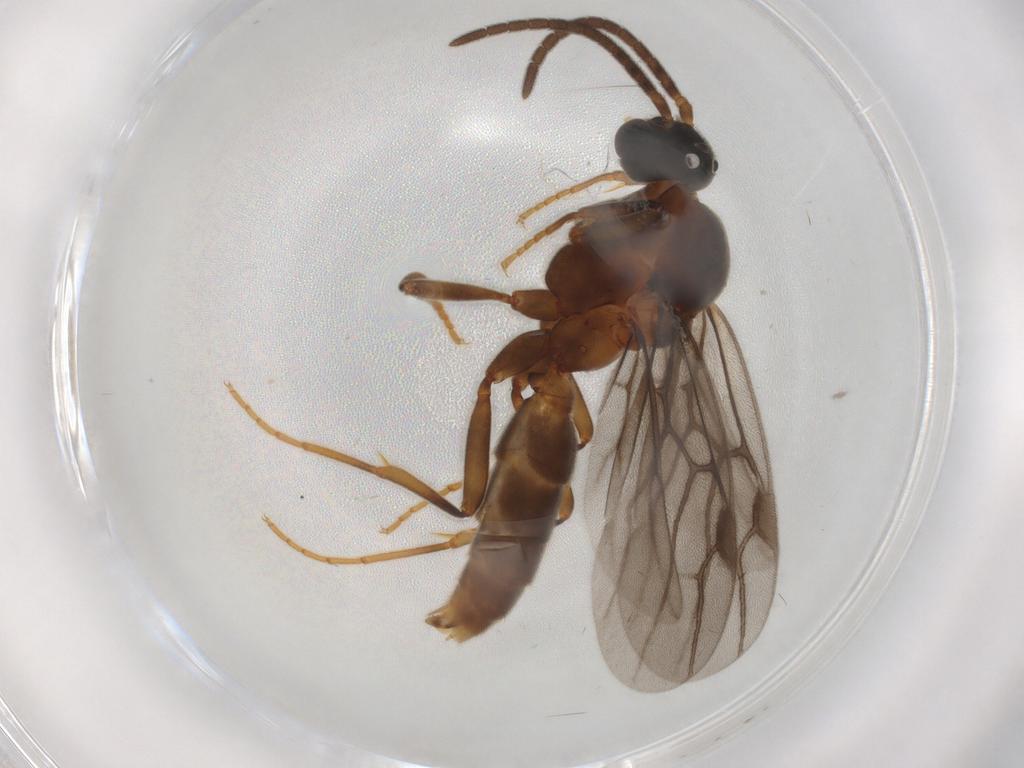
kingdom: Animalia
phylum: Arthropoda
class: Insecta
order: Hymenoptera
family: Formicidae
